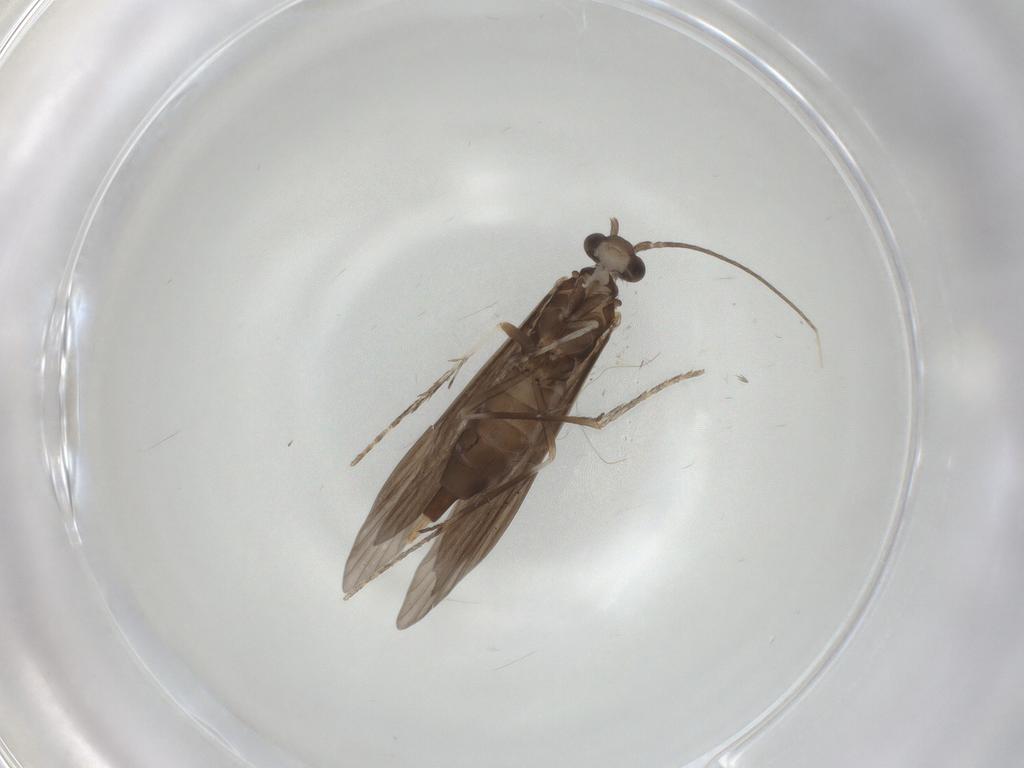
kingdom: Animalia
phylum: Arthropoda
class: Insecta
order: Trichoptera
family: Xiphocentronidae
